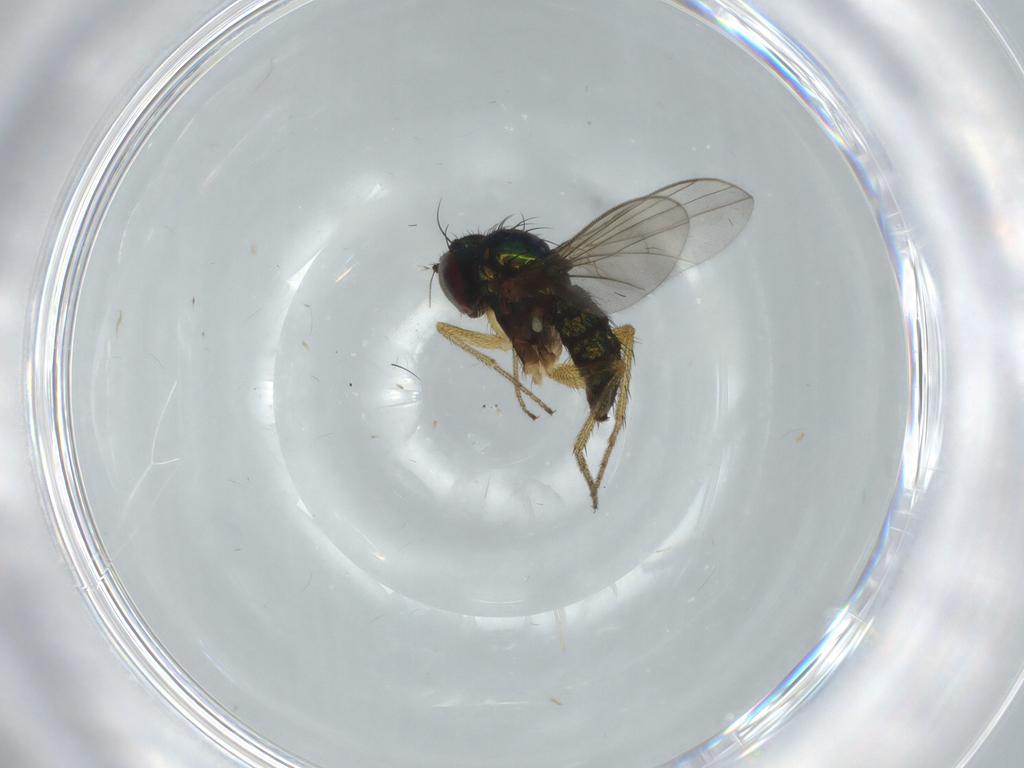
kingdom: Animalia
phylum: Arthropoda
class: Insecta
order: Diptera
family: Dolichopodidae
